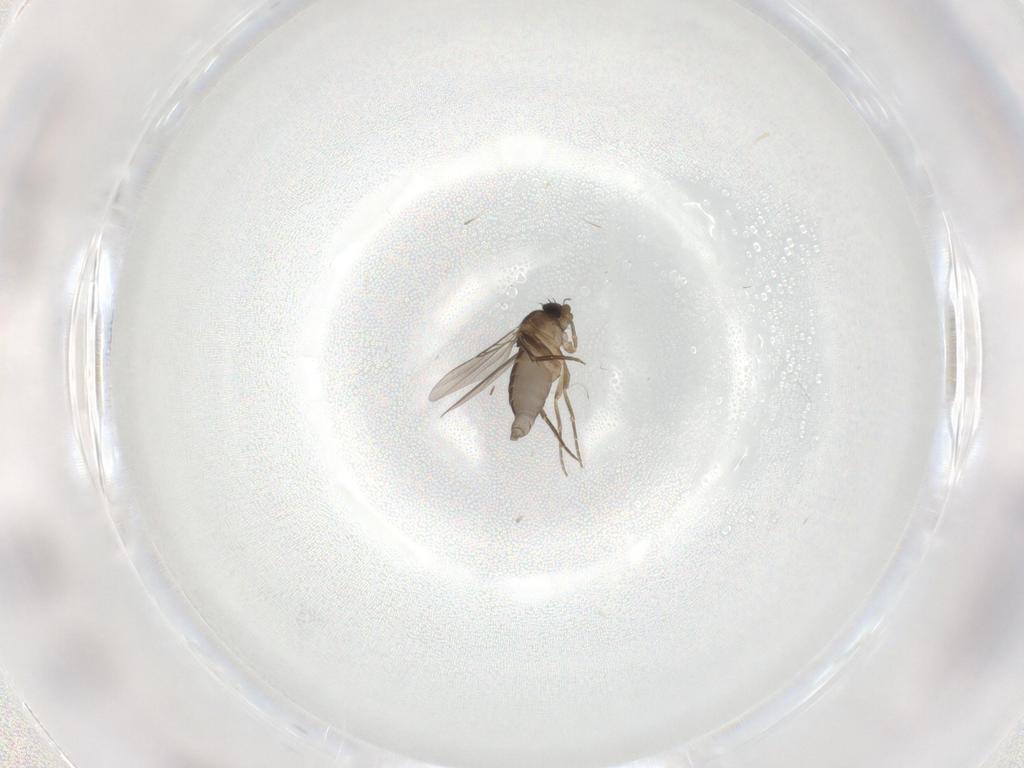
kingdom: Animalia
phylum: Arthropoda
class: Insecta
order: Diptera
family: Phoridae
